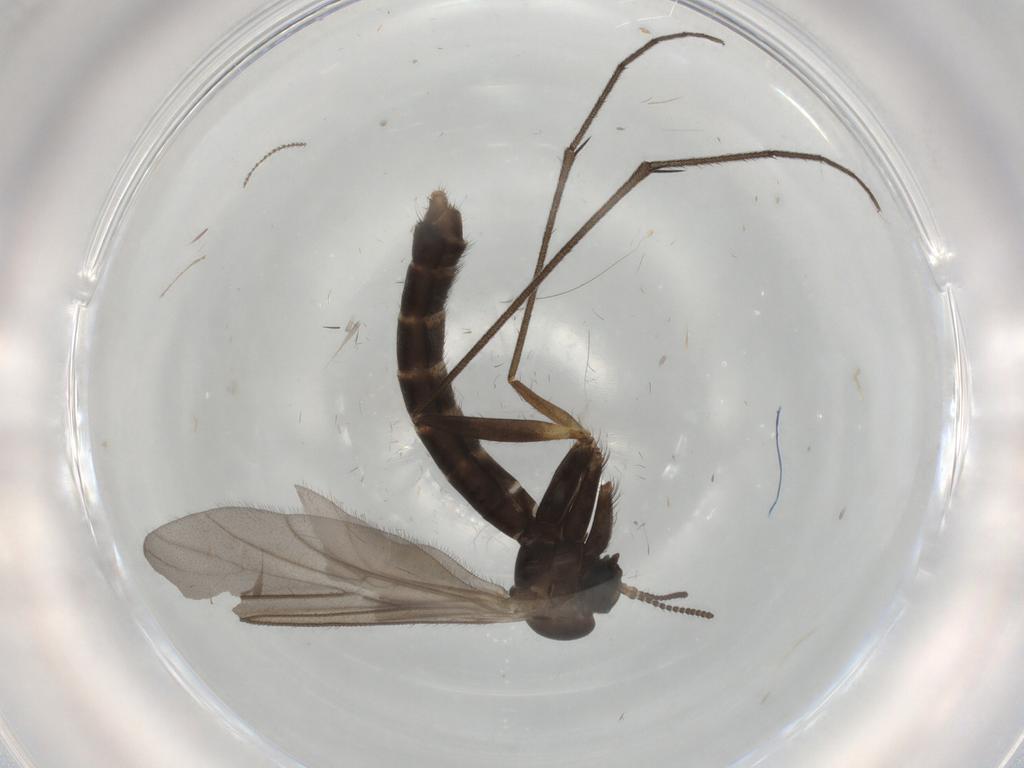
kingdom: Animalia
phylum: Arthropoda
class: Insecta
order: Diptera
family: Ditomyiidae
